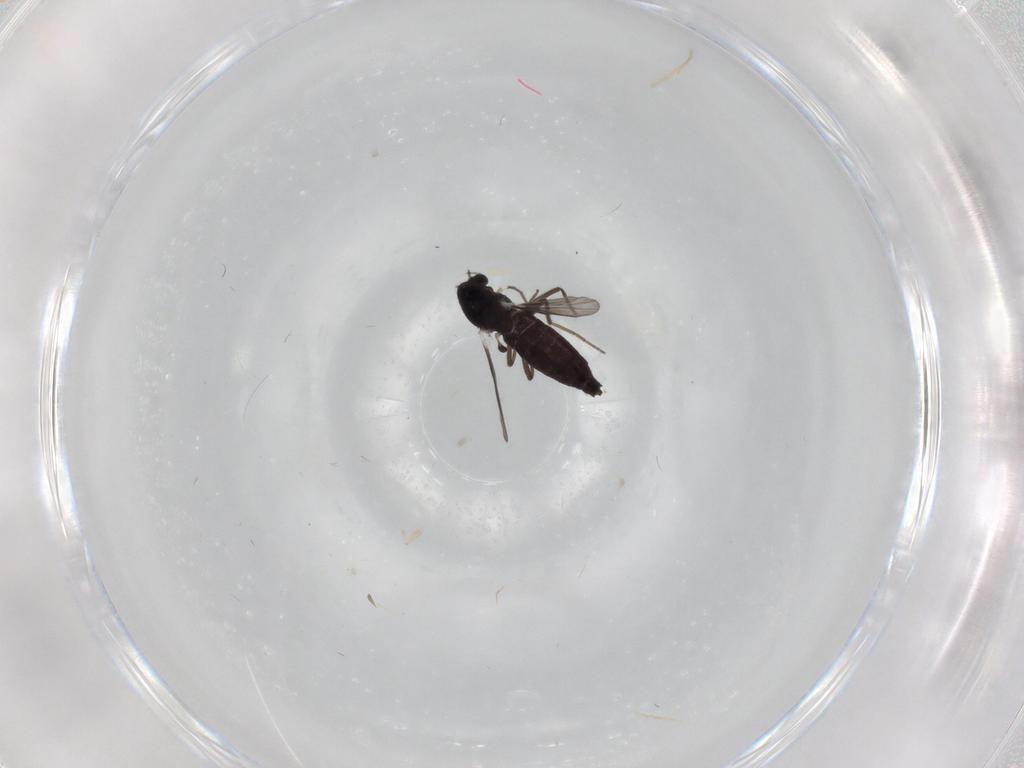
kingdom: Animalia
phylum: Arthropoda
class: Insecta
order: Diptera
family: Chironomidae
